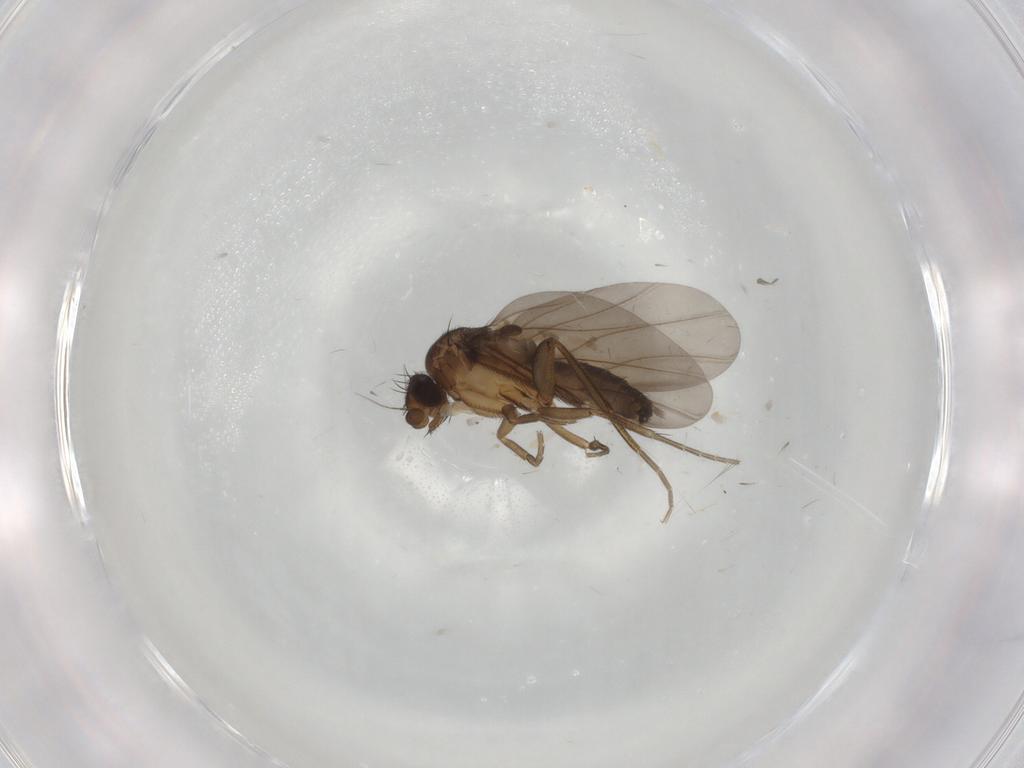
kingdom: Animalia
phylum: Arthropoda
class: Insecta
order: Diptera
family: Phoridae
